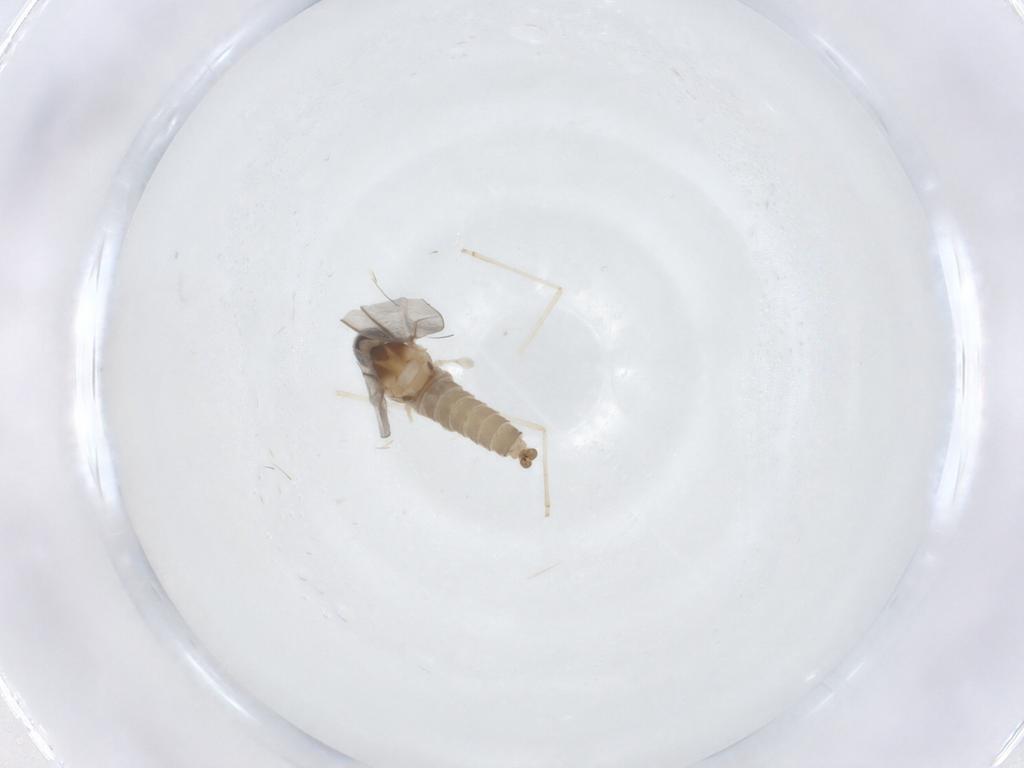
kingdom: Animalia
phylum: Arthropoda
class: Insecta
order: Diptera
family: Cecidomyiidae
